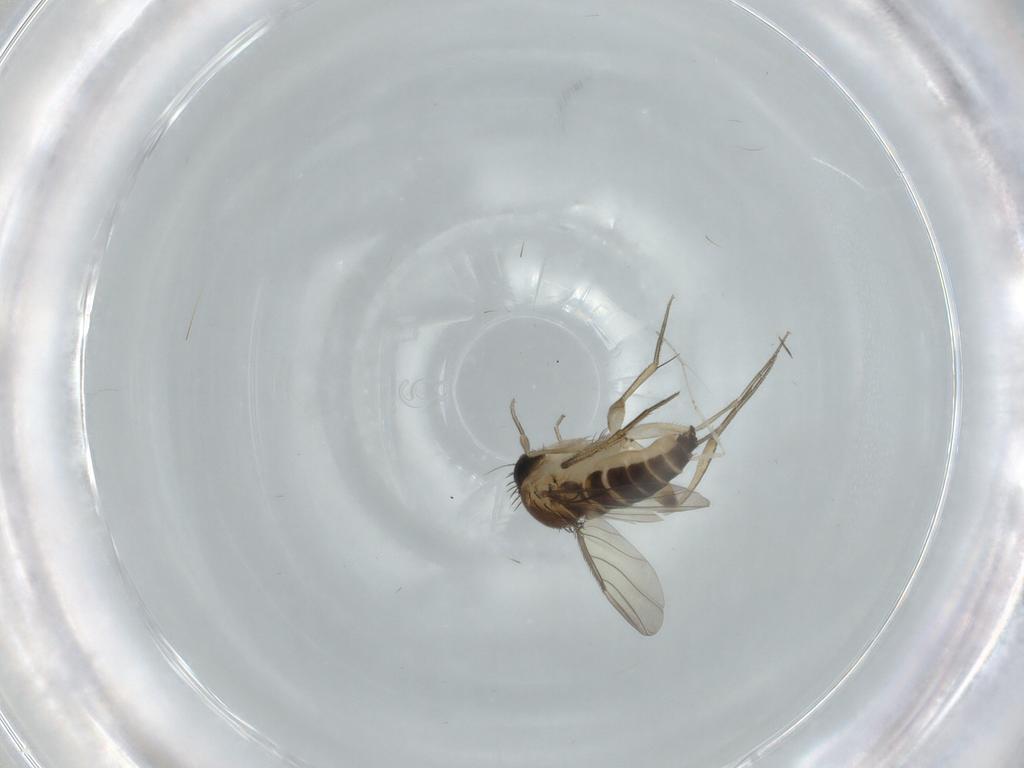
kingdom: Animalia
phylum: Arthropoda
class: Insecta
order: Diptera
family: Phoridae
